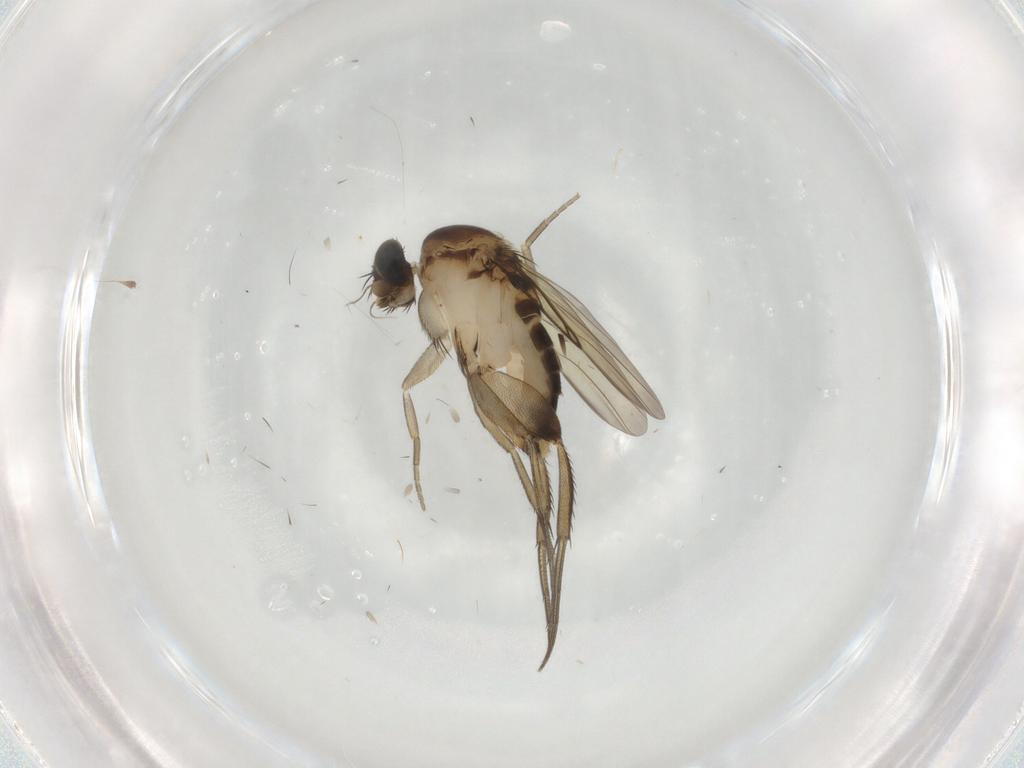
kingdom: Animalia
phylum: Arthropoda
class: Insecta
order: Diptera
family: Phoridae
